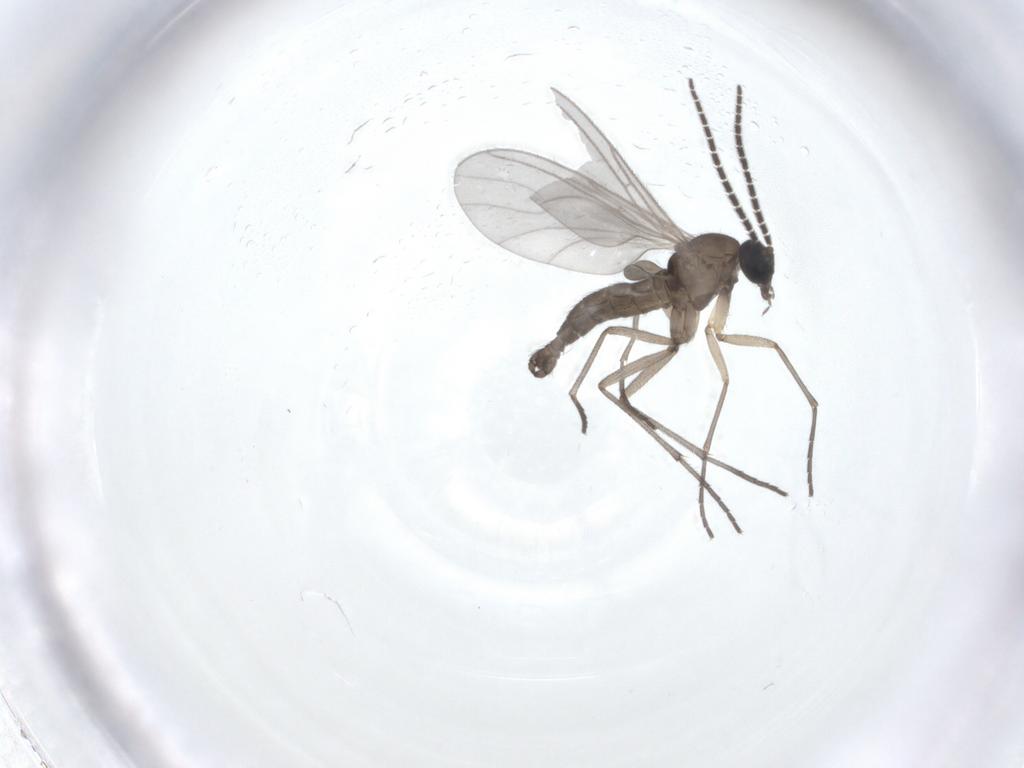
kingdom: Animalia
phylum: Arthropoda
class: Insecta
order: Diptera
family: Sciaridae
